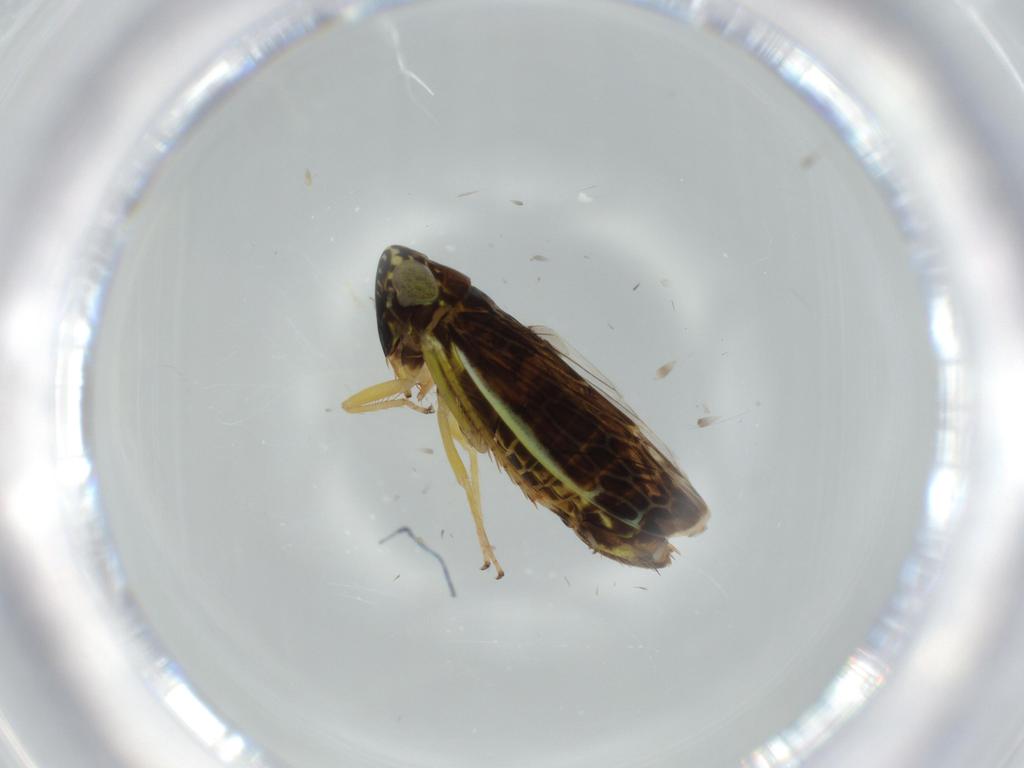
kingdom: Animalia
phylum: Arthropoda
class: Insecta
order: Hemiptera
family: Cicadellidae
